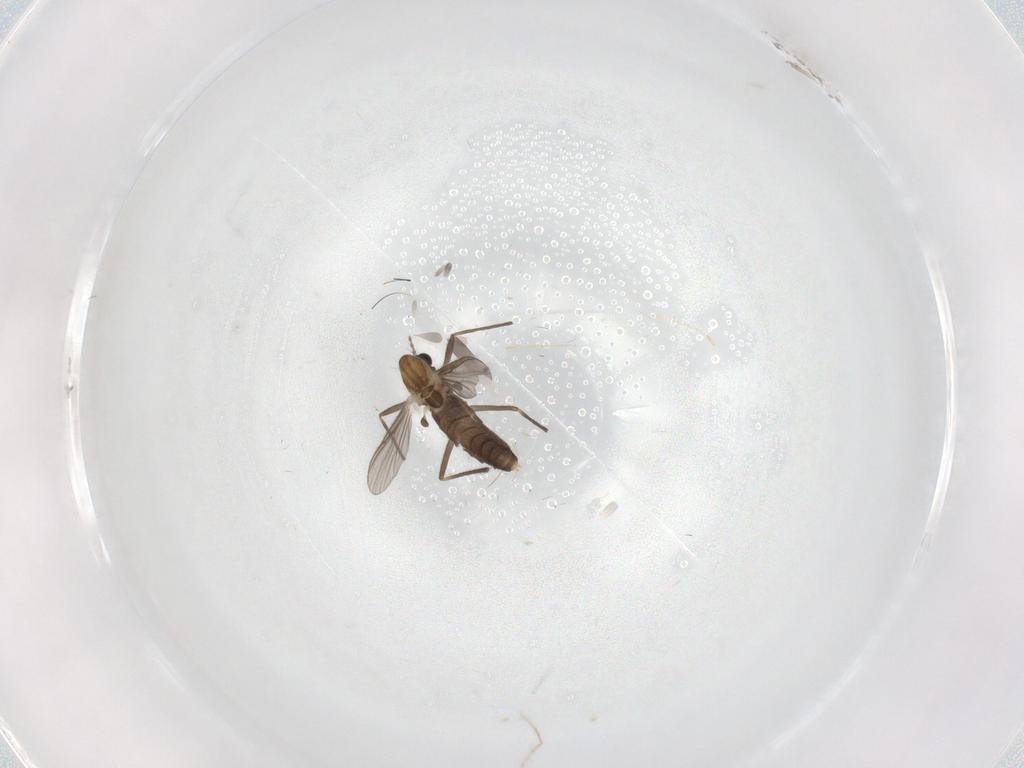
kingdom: Animalia
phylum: Arthropoda
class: Insecta
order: Diptera
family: Chironomidae
